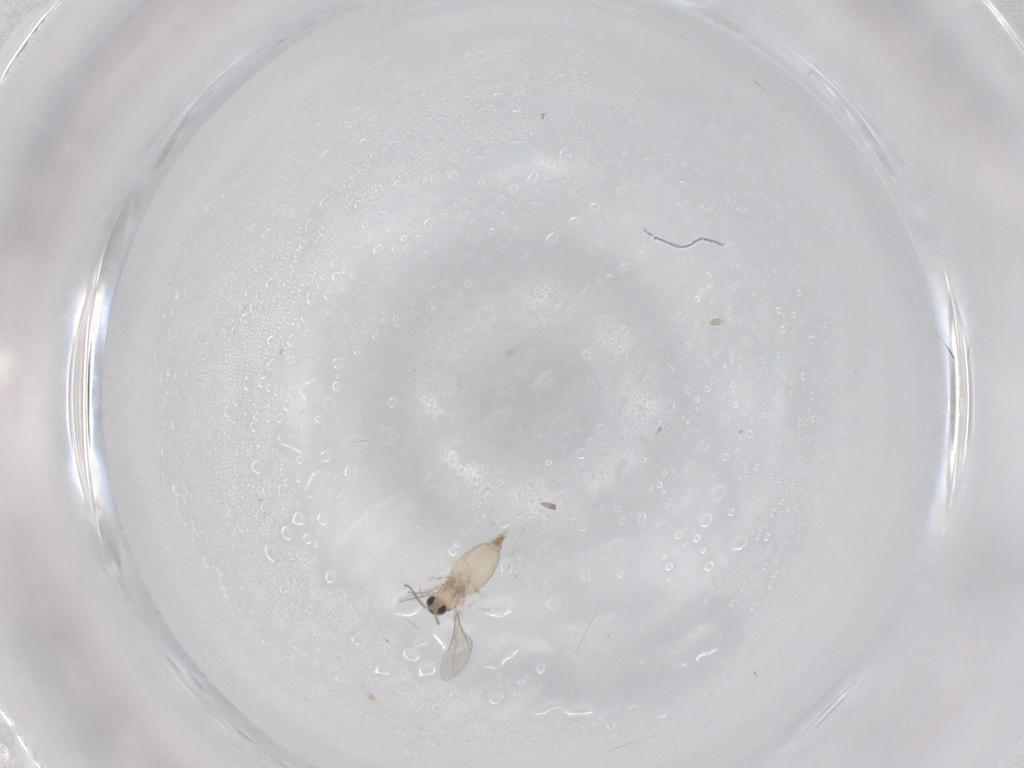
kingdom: Animalia
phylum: Arthropoda
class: Insecta
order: Diptera
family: Cecidomyiidae
